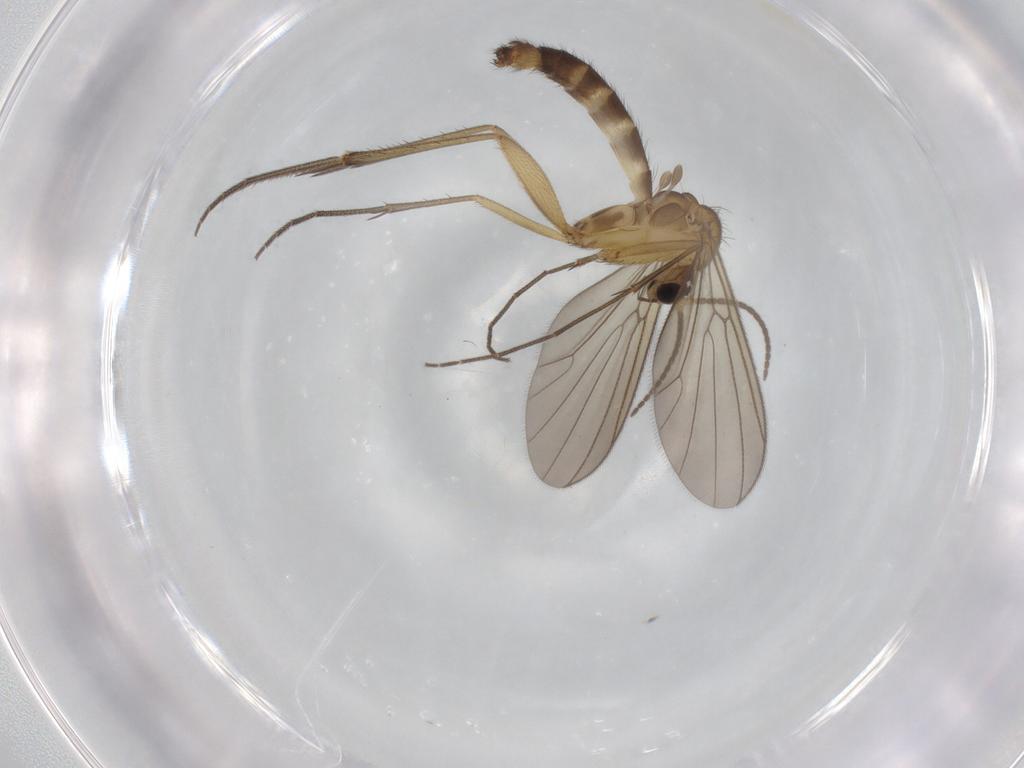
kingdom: Animalia
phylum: Arthropoda
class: Insecta
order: Diptera
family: Mycetophilidae
